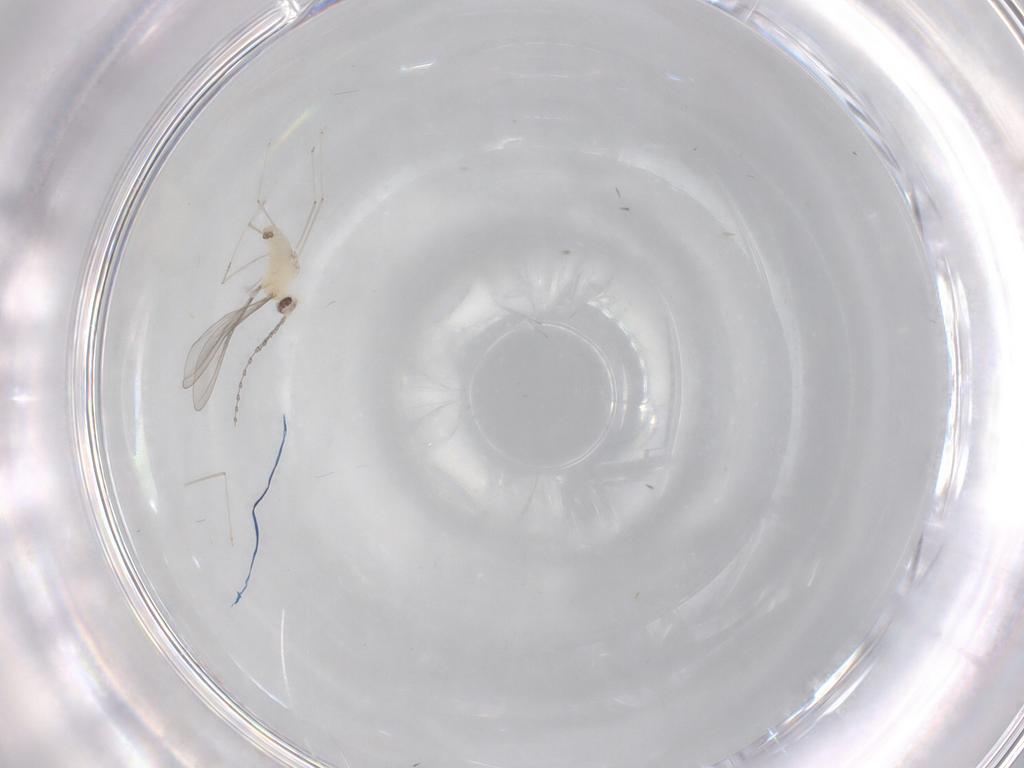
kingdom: Animalia
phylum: Arthropoda
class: Insecta
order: Diptera
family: Cecidomyiidae
